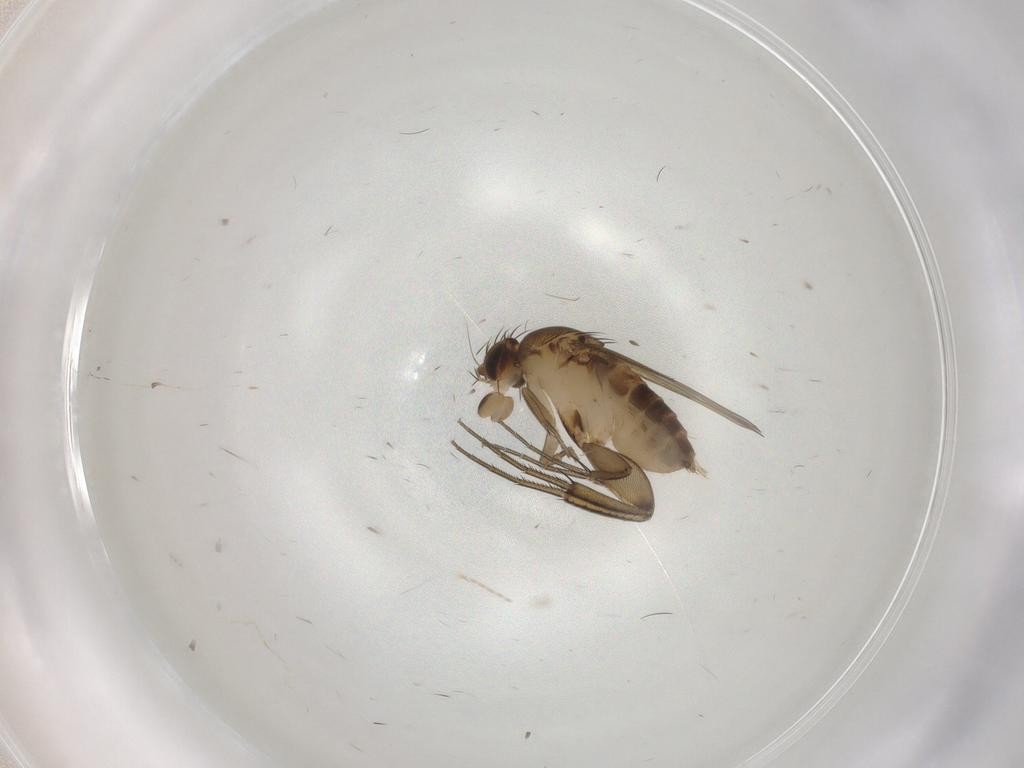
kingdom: Animalia
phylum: Arthropoda
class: Insecta
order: Diptera
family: Phoridae
